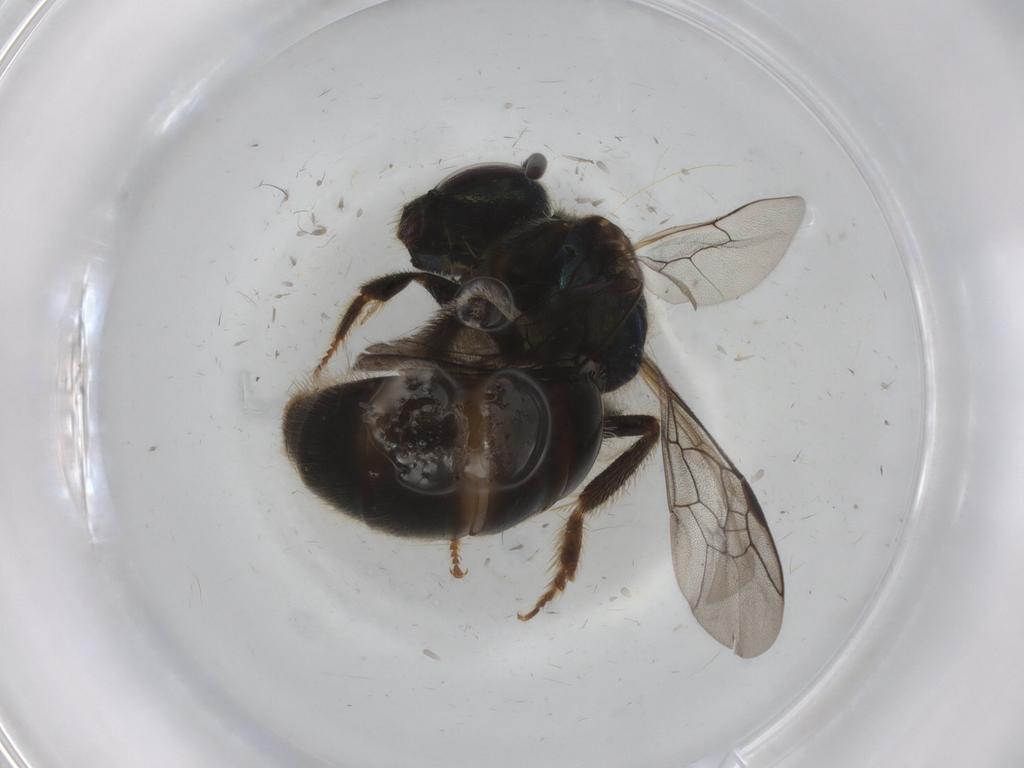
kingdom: Animalia
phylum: Arthropoda
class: Insecta
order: Hymenoptera
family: Halictidae
